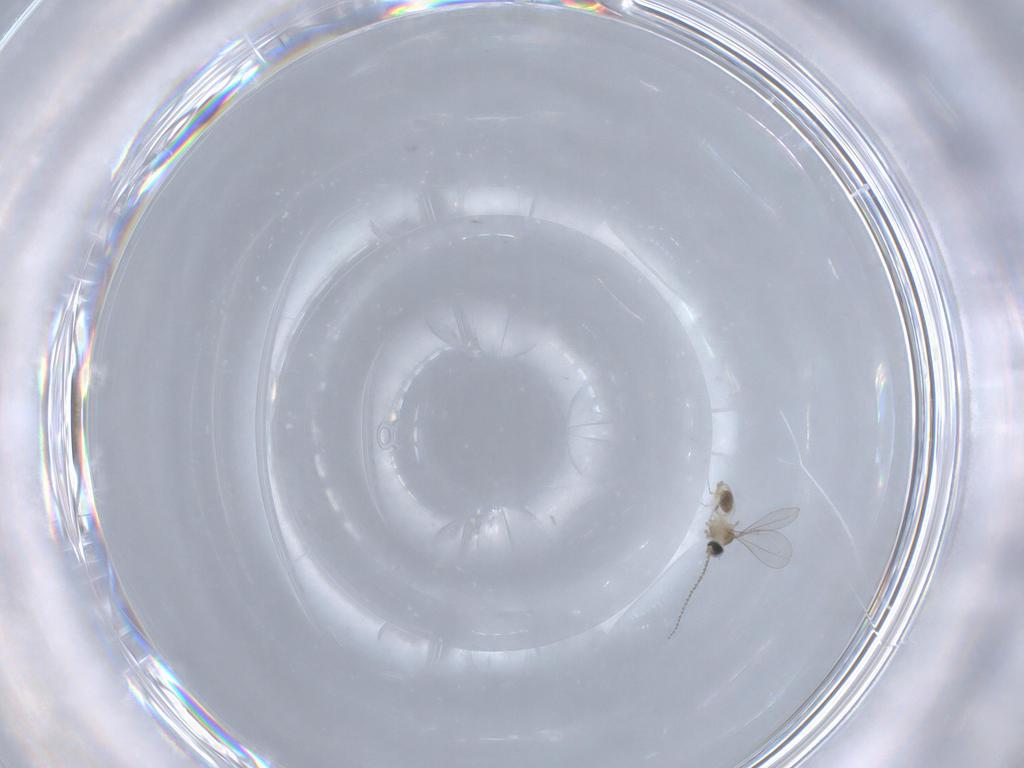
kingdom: Animalia
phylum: Arthropoda
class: Insecta
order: Diptera
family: Cecidomyiidae
